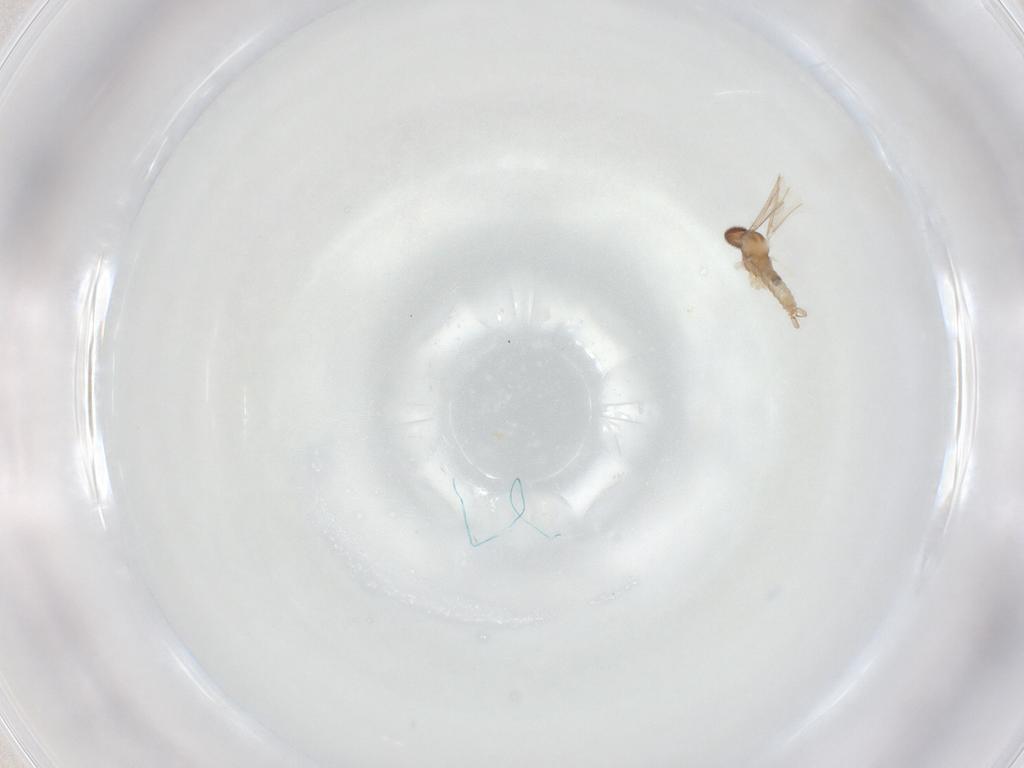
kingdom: Animalia
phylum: Arthropoda
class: Insecta
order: Diptera
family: Cecidomyiidae
